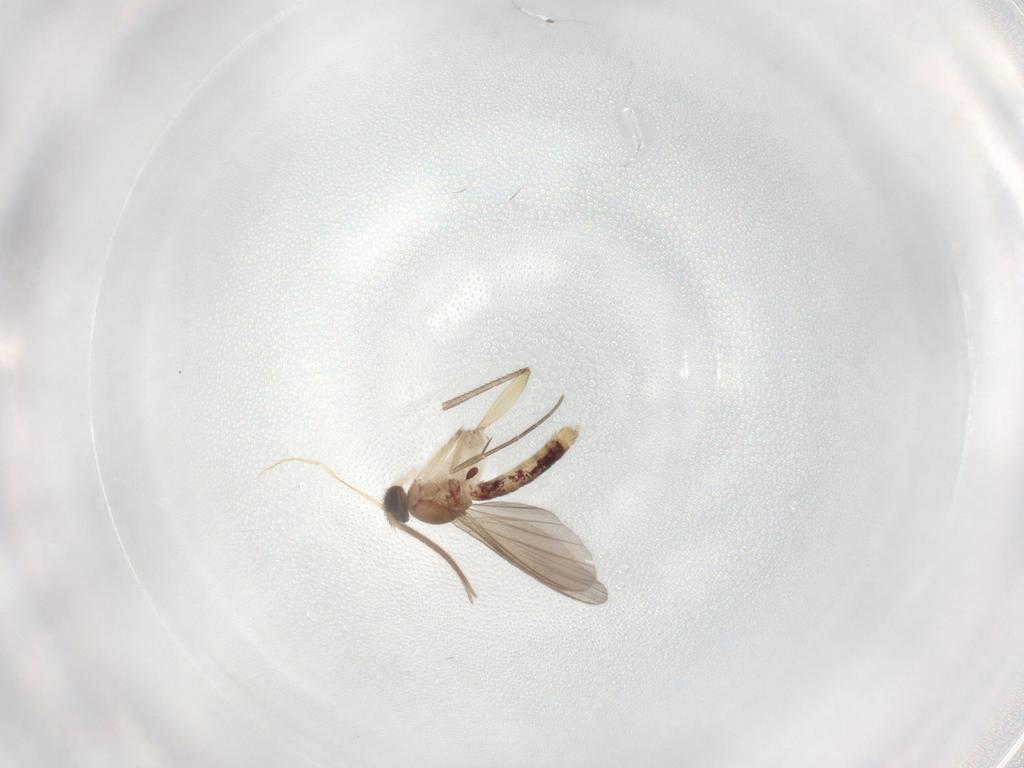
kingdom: Animalia
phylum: Arthropoda
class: Insecta
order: Diptera
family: Mycetophilidae
